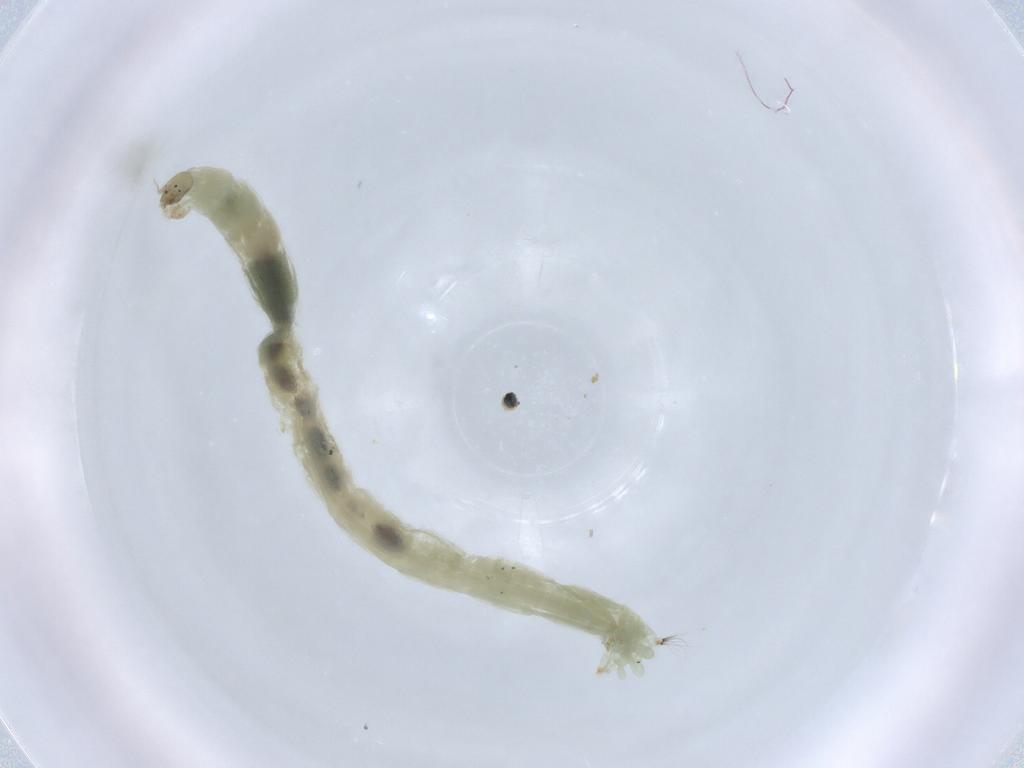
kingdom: Animalia
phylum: Arthropoda
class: Insecta
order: Diptera
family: Chironomidae
